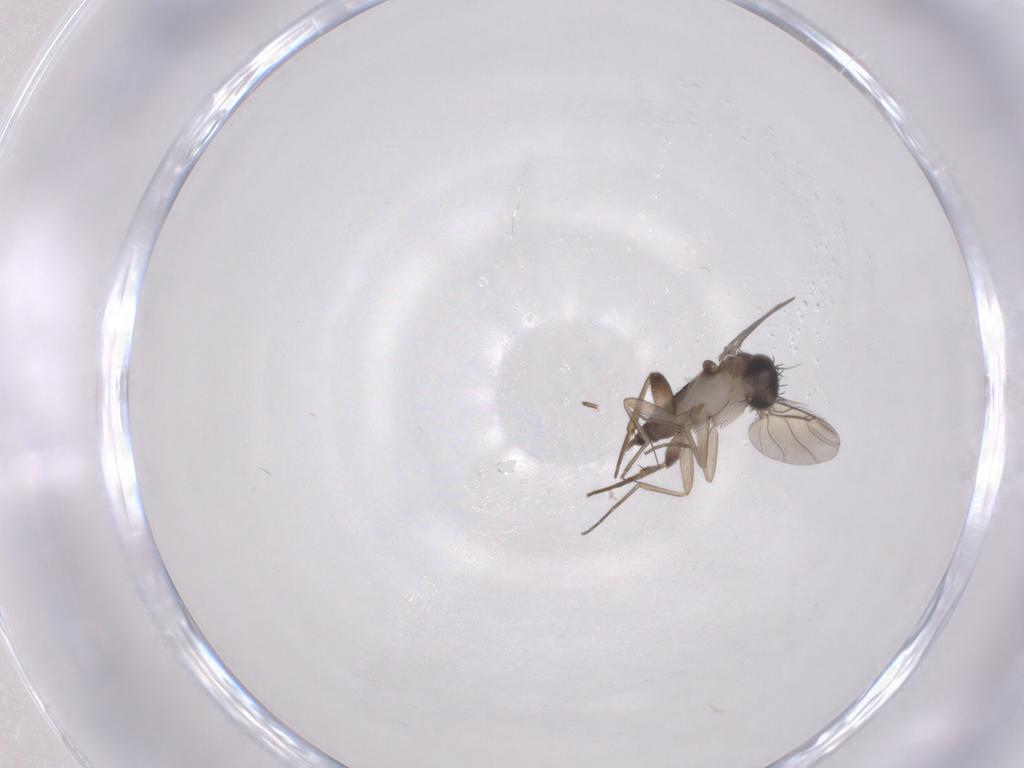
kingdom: Animalia
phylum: Arthropoda
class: Insecta
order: Diptera
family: Phoridae
